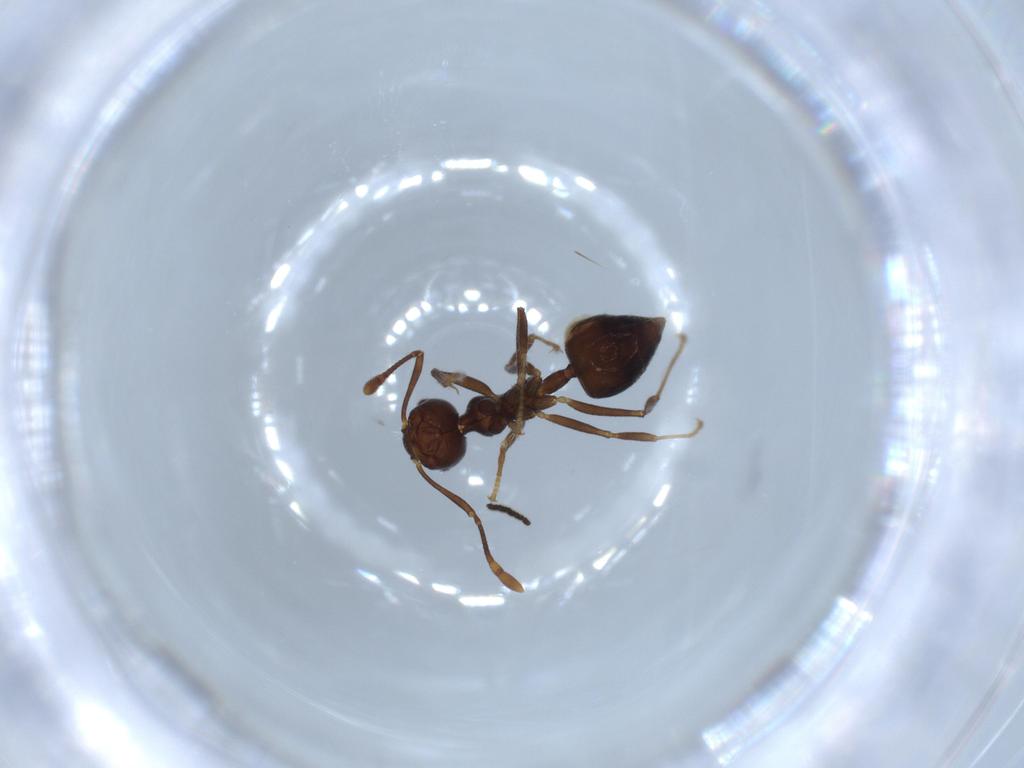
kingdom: Animalia
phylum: Arthropoda
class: Insecta
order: Hymenoptera
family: Formicidae
